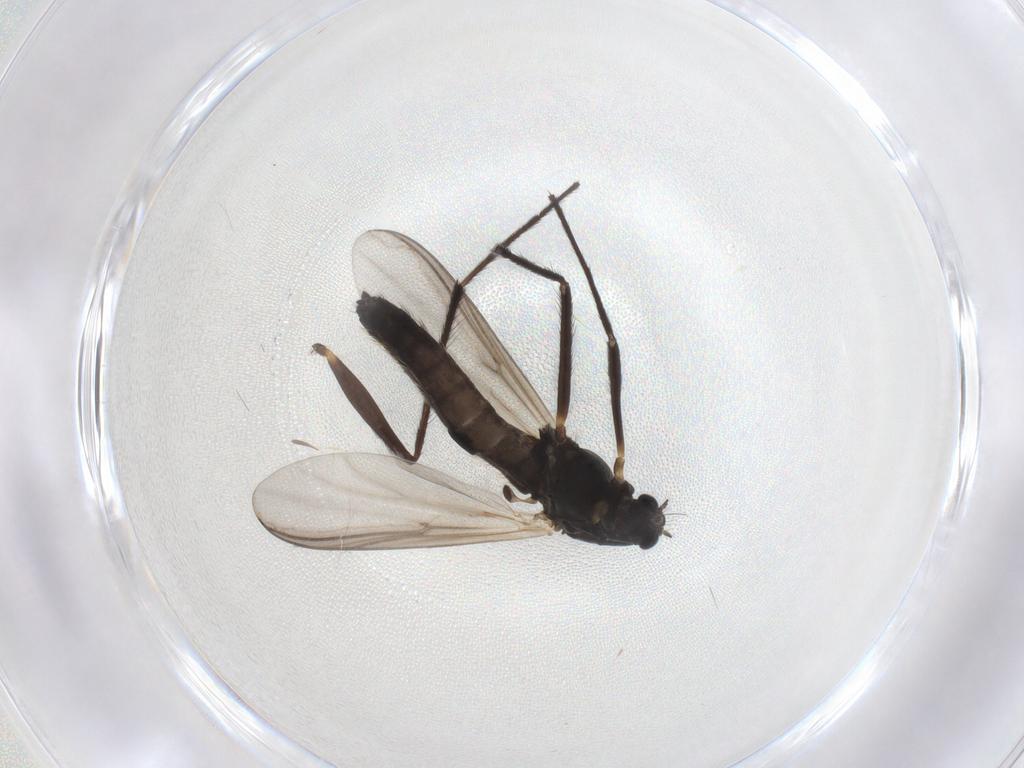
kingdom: Animalia
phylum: Arthropoda
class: Insecta
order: Diptera
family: Chironomidae
